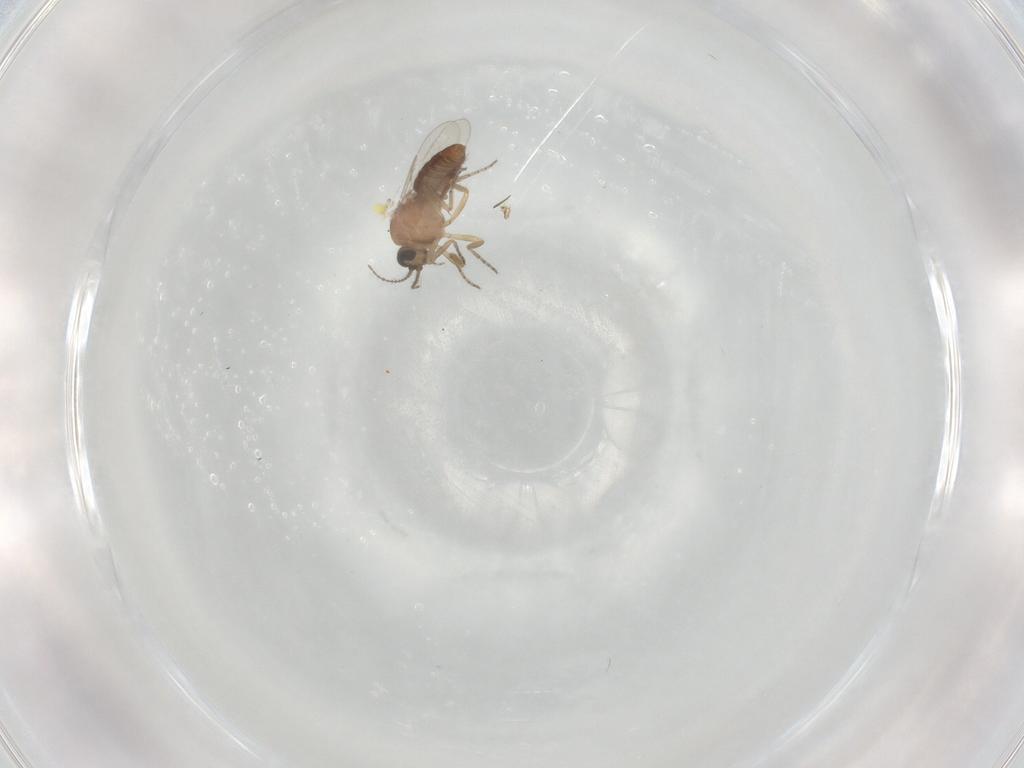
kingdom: Animalia
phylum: Arthropoda
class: Insecta
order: Diptera
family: Ceratopogonidae
